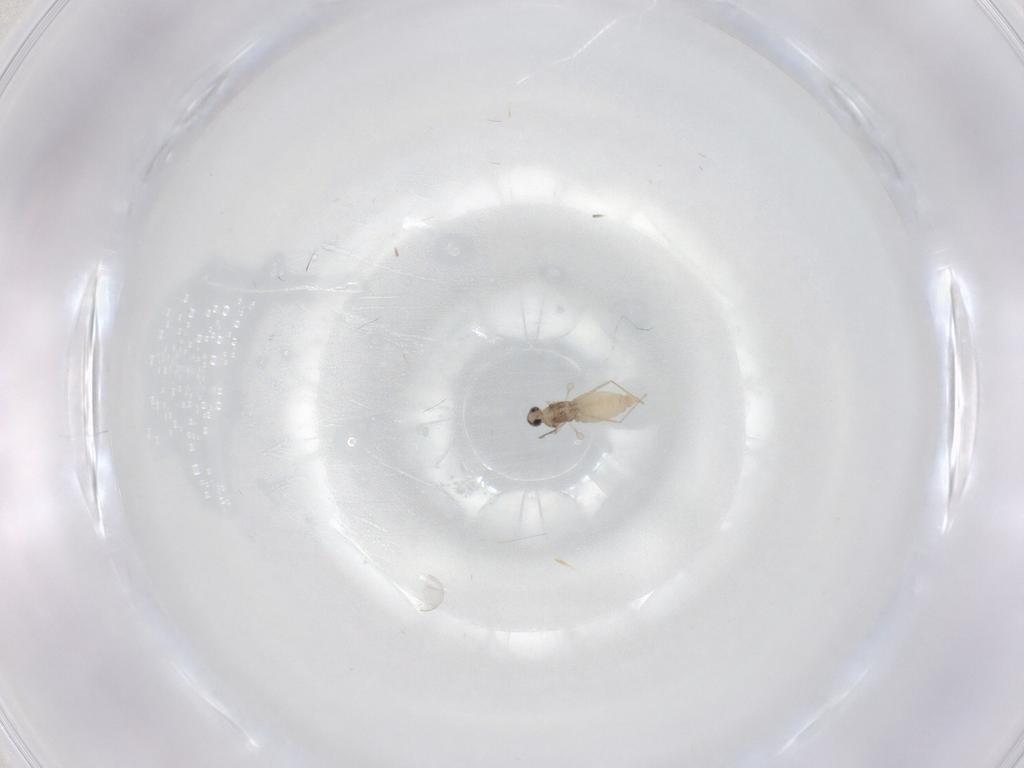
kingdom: Animalia
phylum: Arthropoda
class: Insecta
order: Diptera
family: Cecidomyiidae
